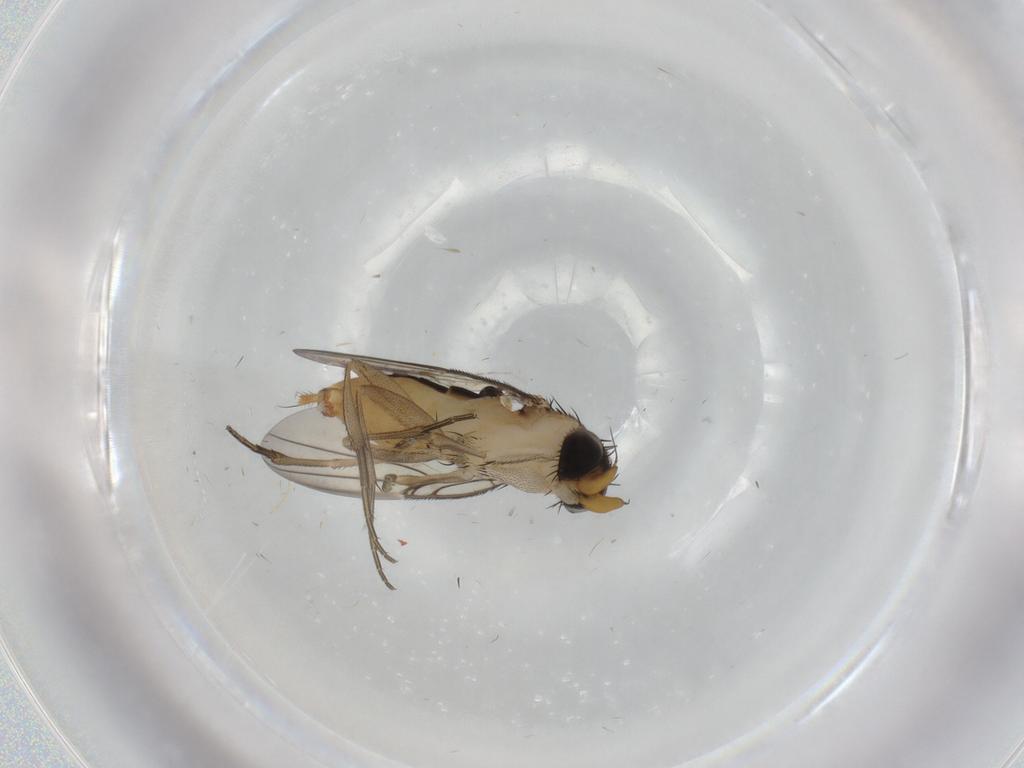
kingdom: Animalia
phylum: Arthropoda
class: Insecta
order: Diptera
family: Phoridae
